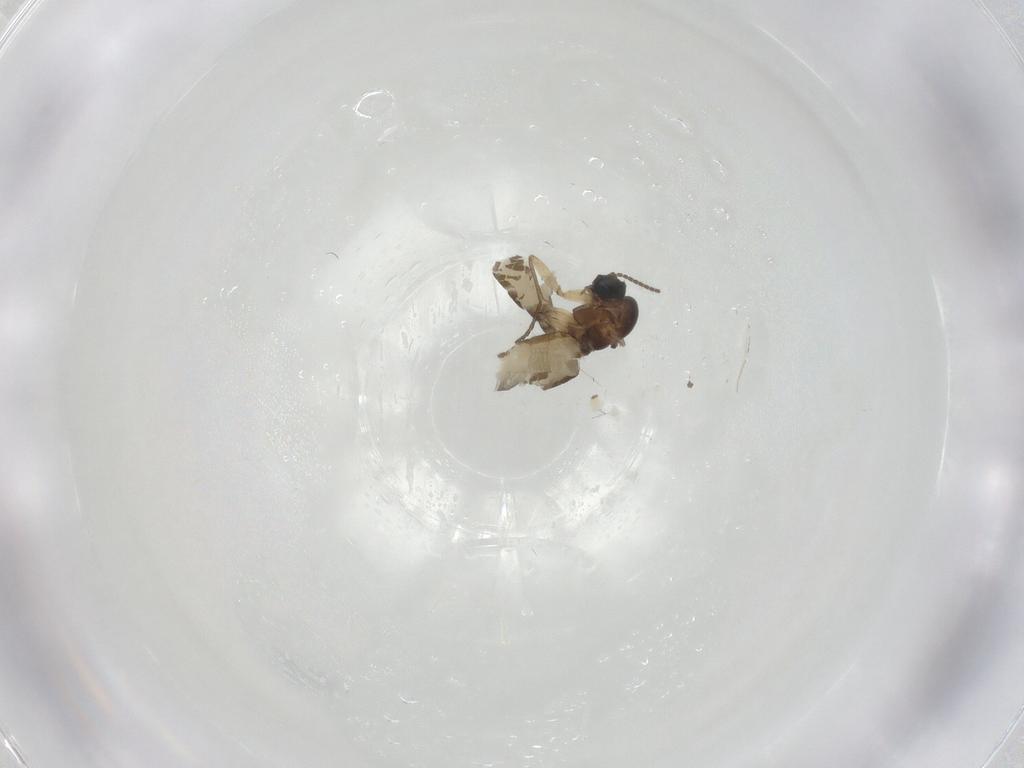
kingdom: Animalia
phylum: Arthropoda
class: Insecta
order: Diptera
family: Sciaridae
